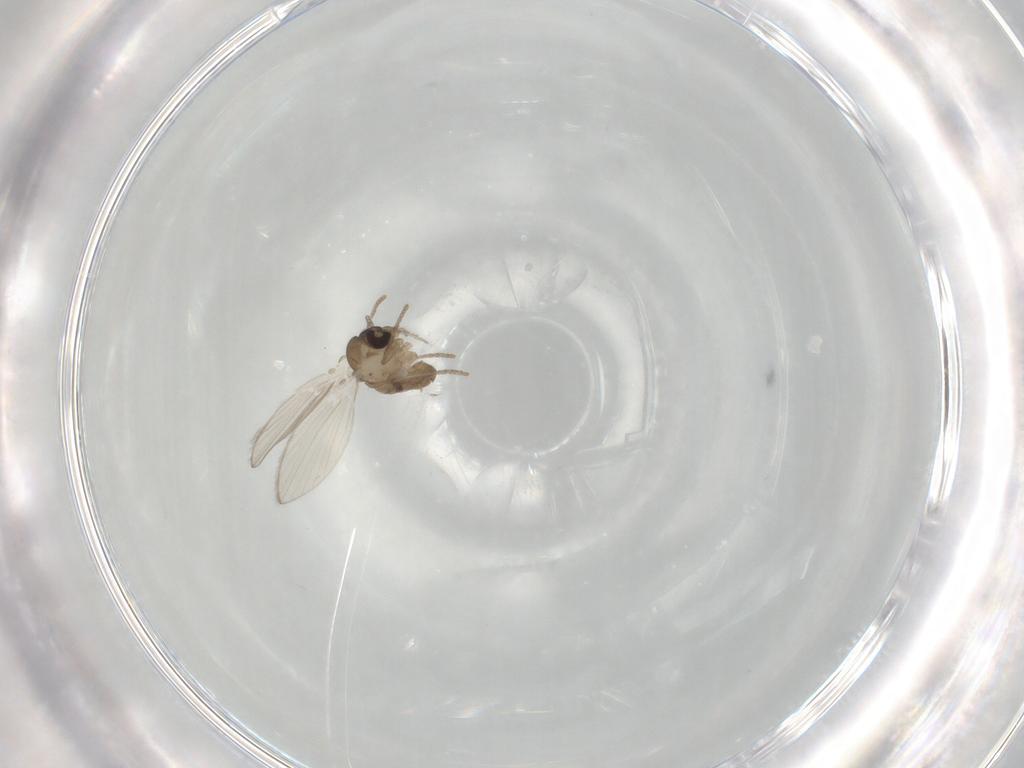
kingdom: Animalia
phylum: Arthropoda
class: Insecta
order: Diptera
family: Psychodidae
